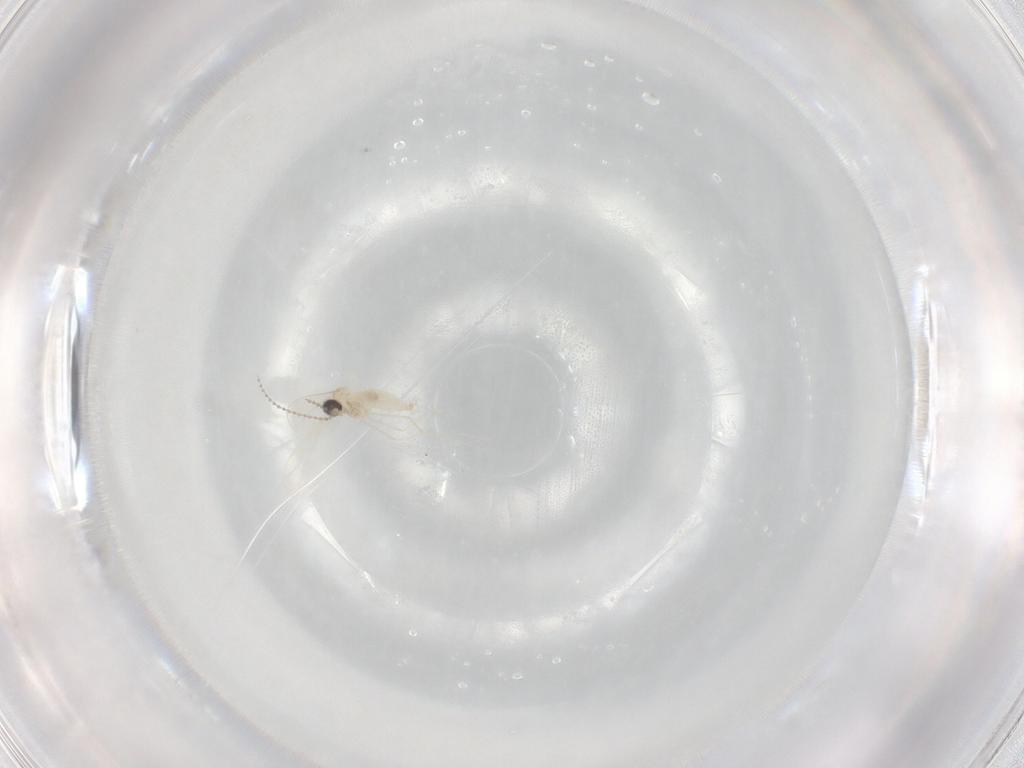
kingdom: Animalia
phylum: Arthropoda
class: Insecta
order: Diptera
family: Cecidomyiidae
